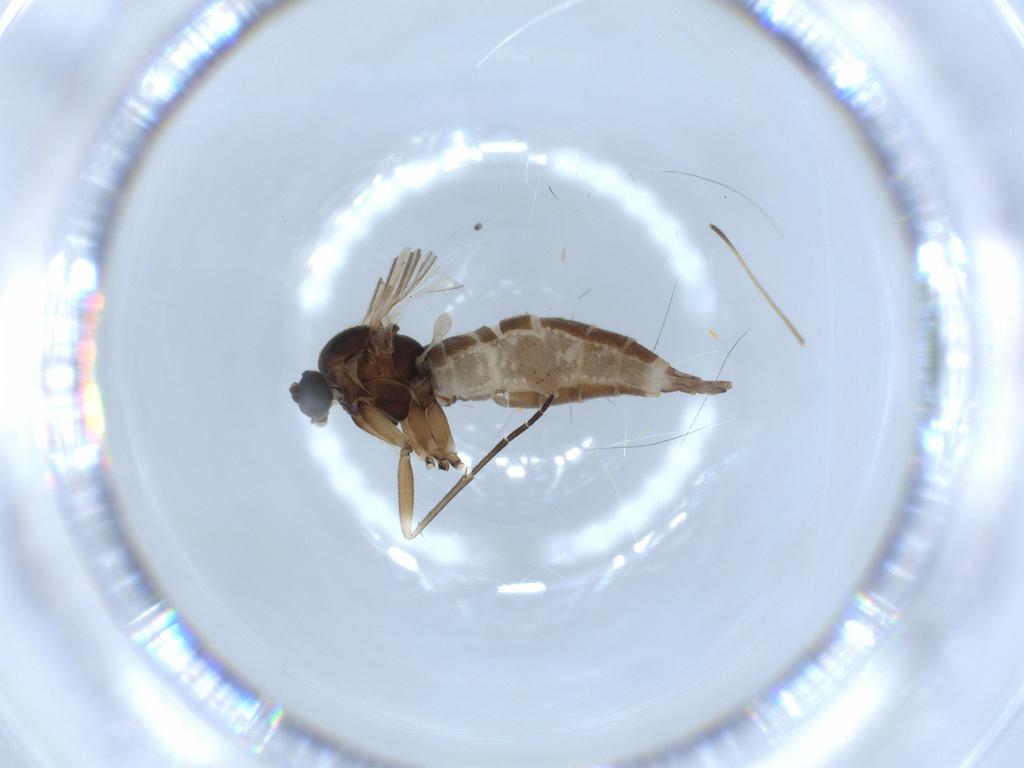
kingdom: Animalia
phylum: Arthropoda
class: Insecta
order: Diptera
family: Sciaridae
